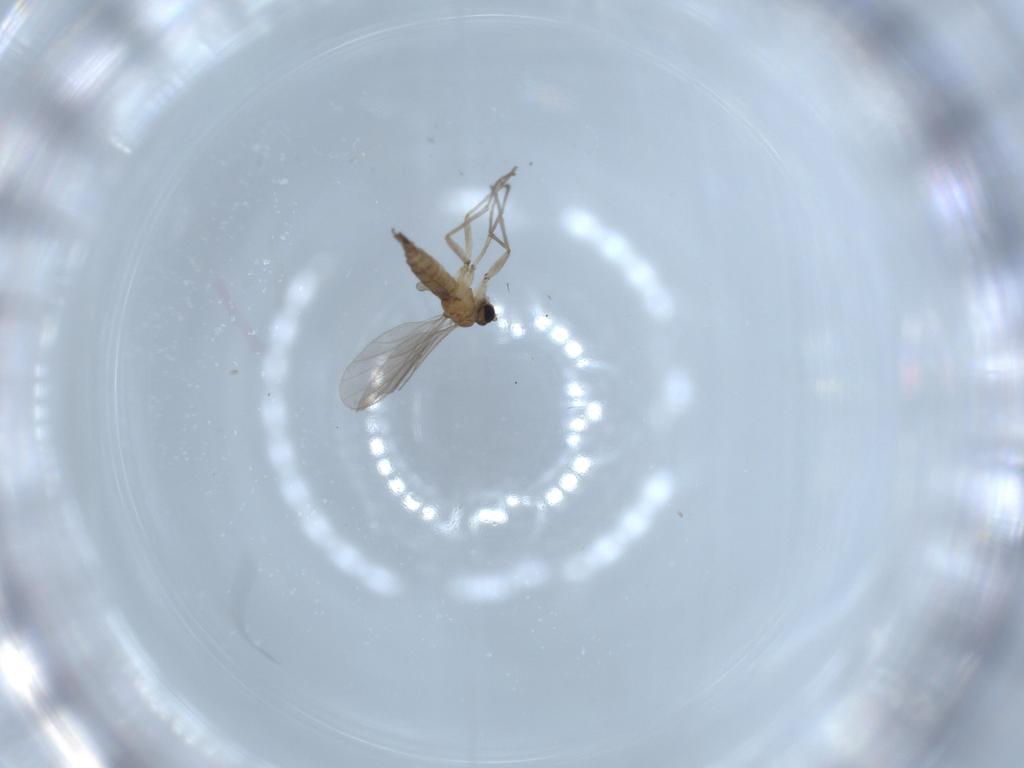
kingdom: Animalia
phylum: Arthropoda
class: Insecta
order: Diptera
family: Sciaridae
